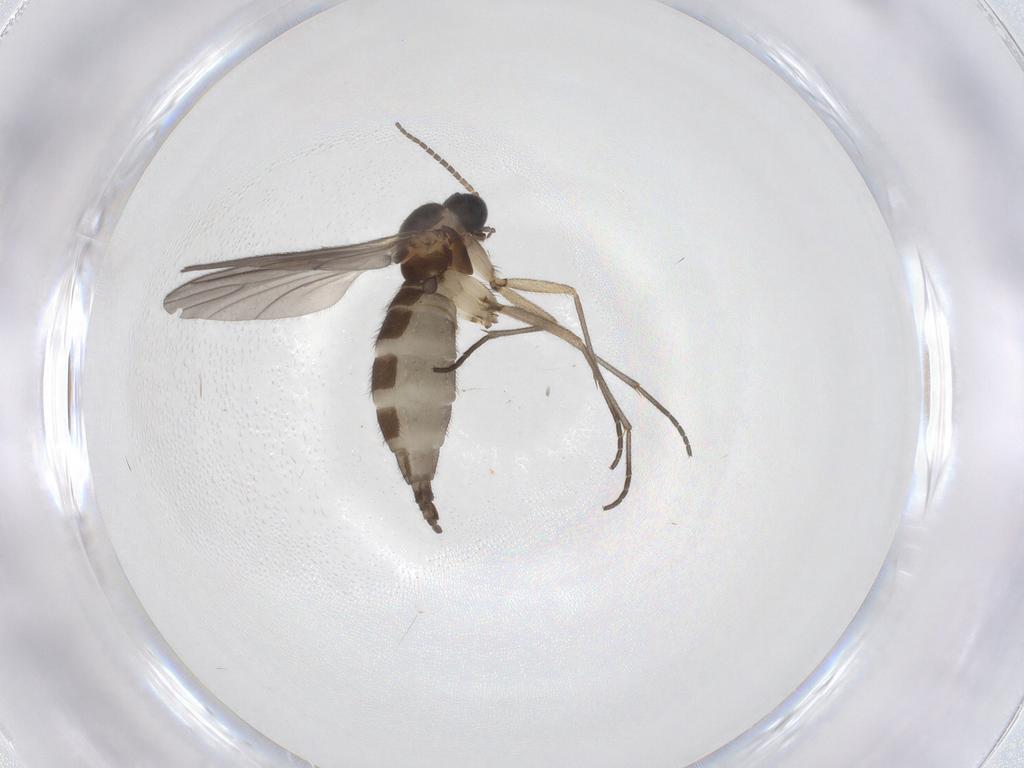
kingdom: Animalia
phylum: Arthropoda
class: Insecta
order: Diptera
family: Sciaridae
